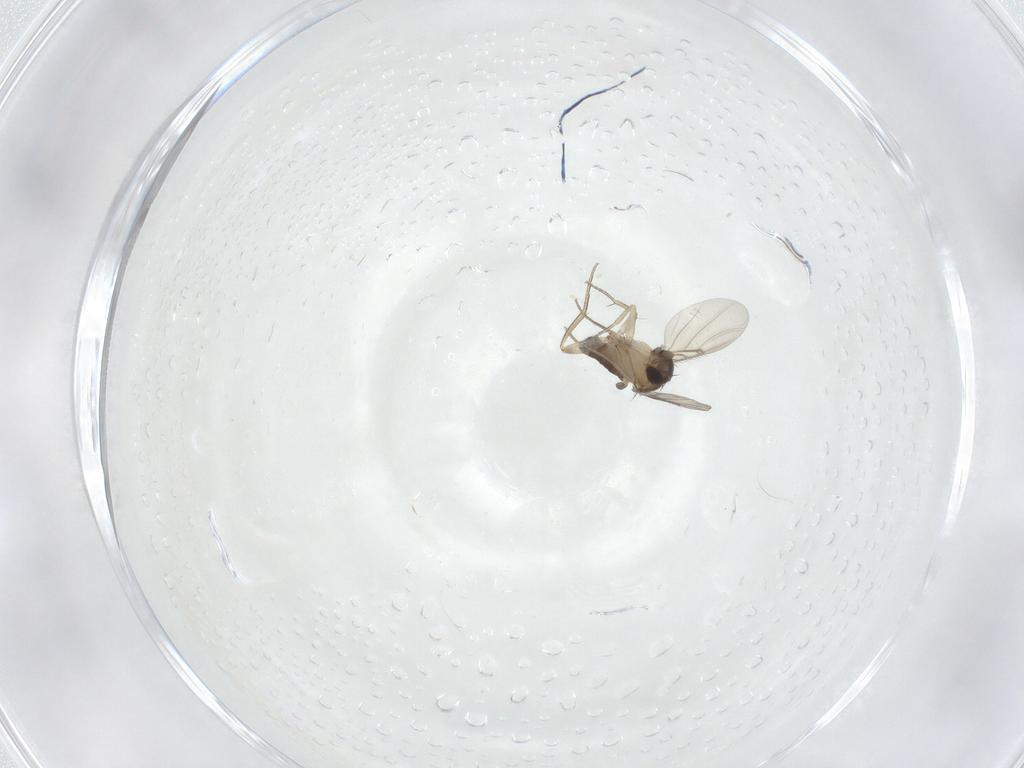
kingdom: Animalia
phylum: Arthropoda
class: Insecta
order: Diptera
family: Phoridae
